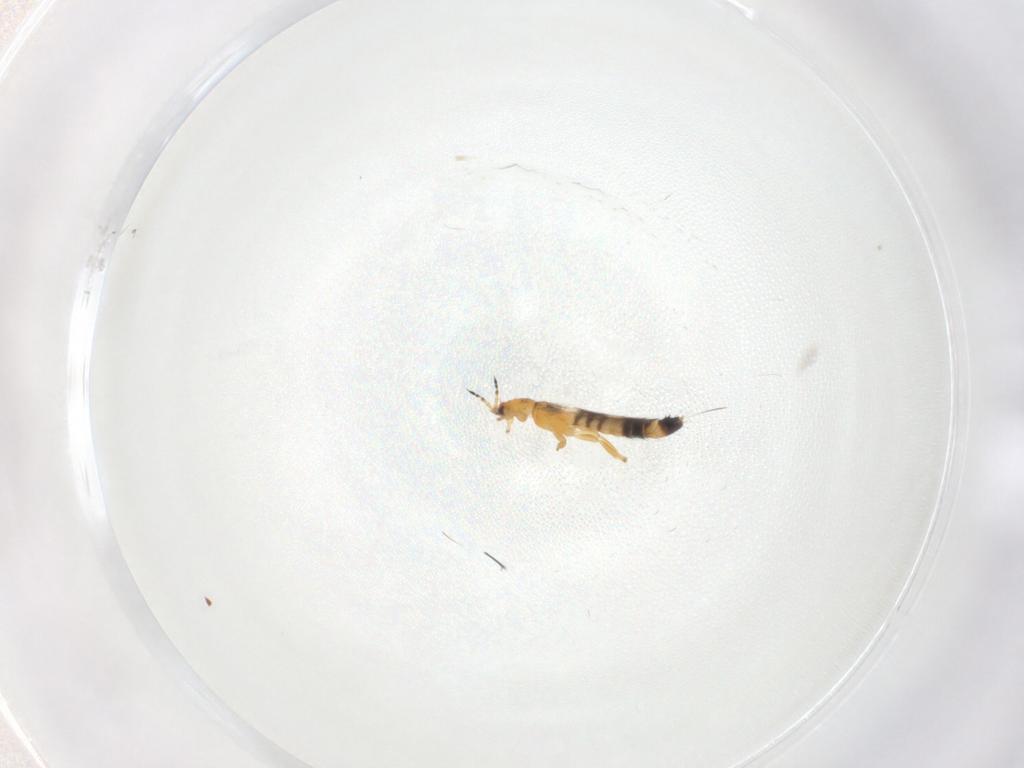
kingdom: Animalia
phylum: Arthropoda
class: Insecta
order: Thysanoptera
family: Thripidae
